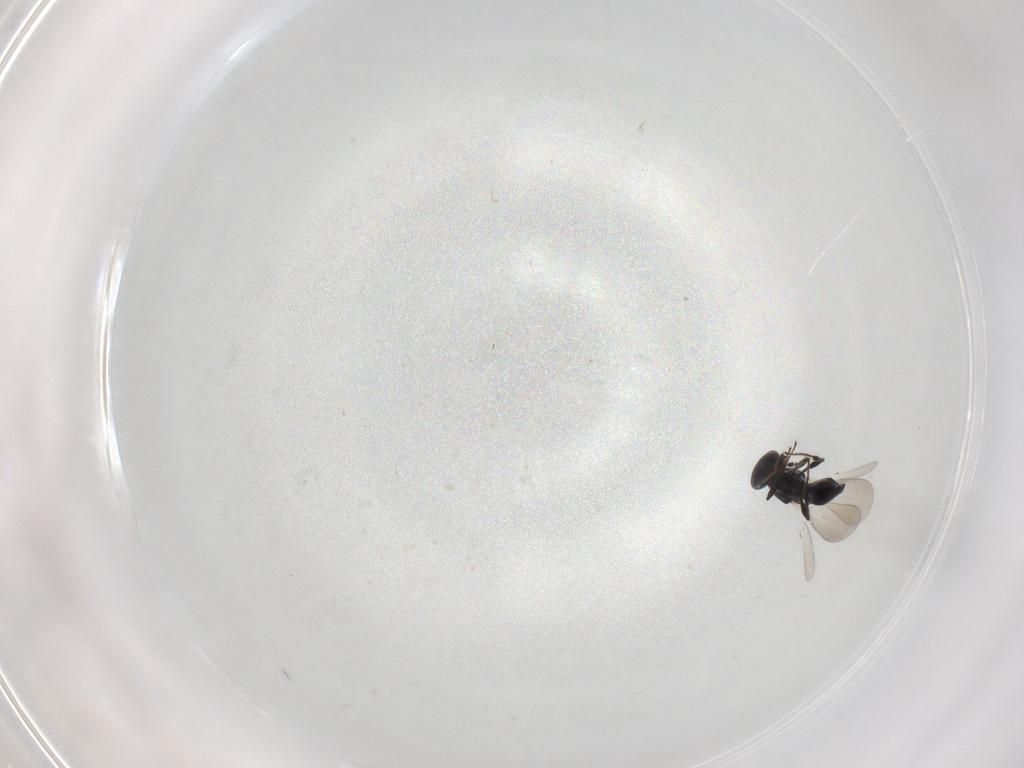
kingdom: Animalia
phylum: Arthropoda
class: Insecta
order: Hymenoptera
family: Platygastridae
